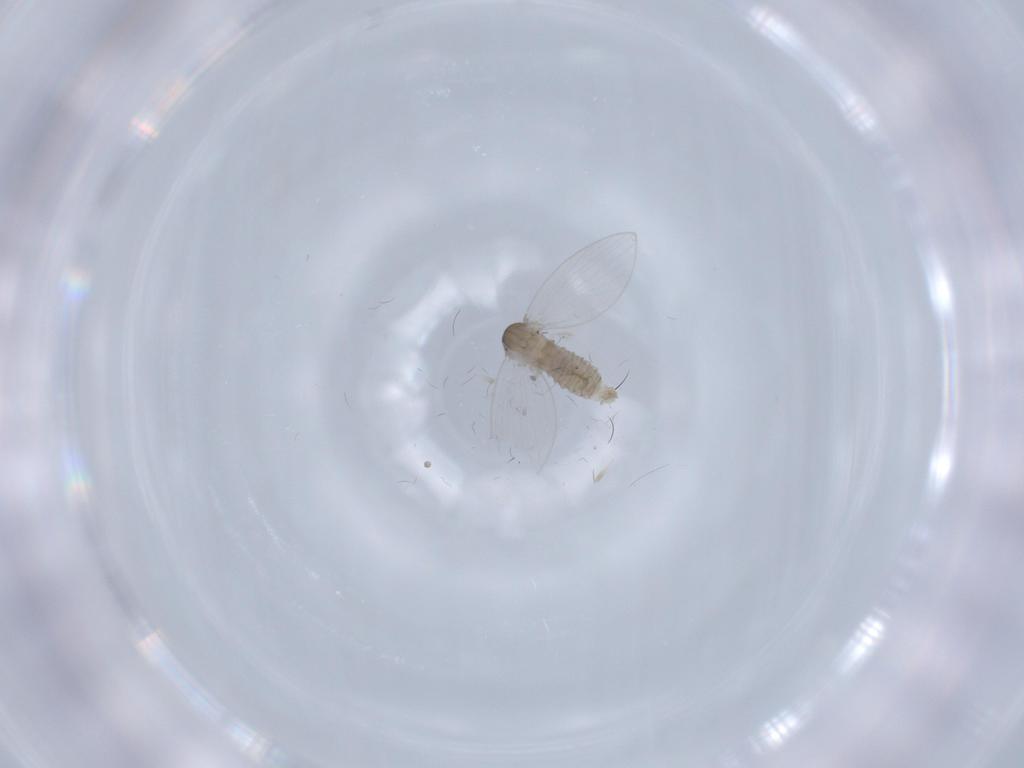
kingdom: Animalia
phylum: Arthropoda
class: Insecta
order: Diptera
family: Psychodidae
